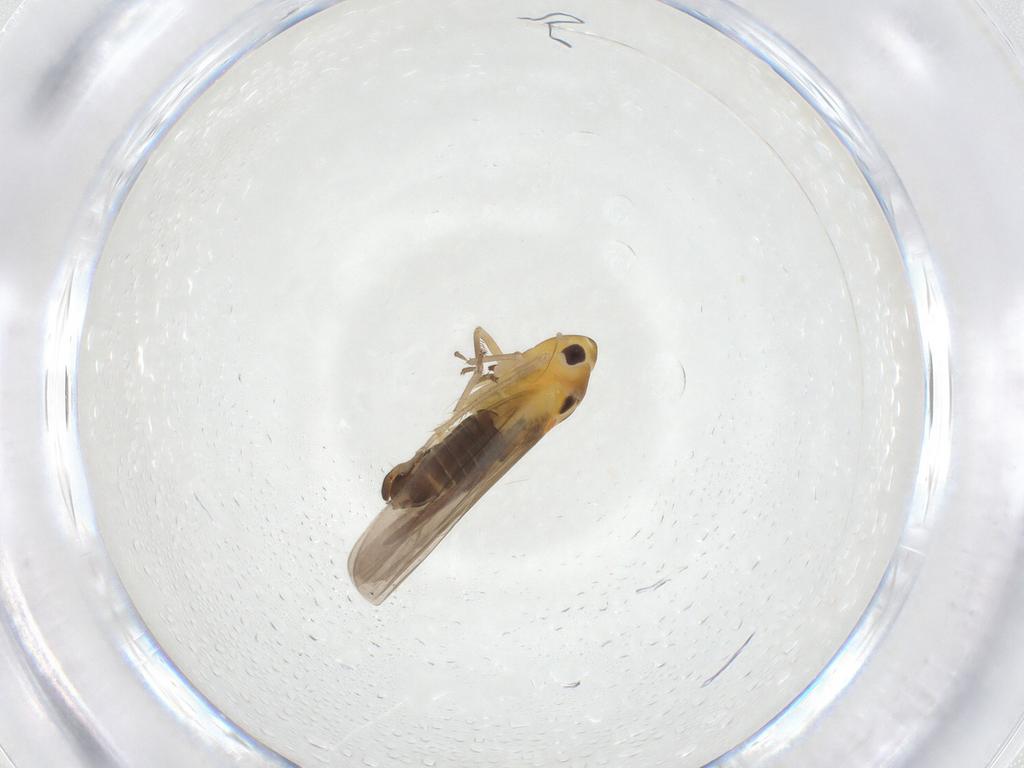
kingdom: Animalia
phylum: Arthropoda
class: Insecta
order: Hemiptera
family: Cicadellidae
